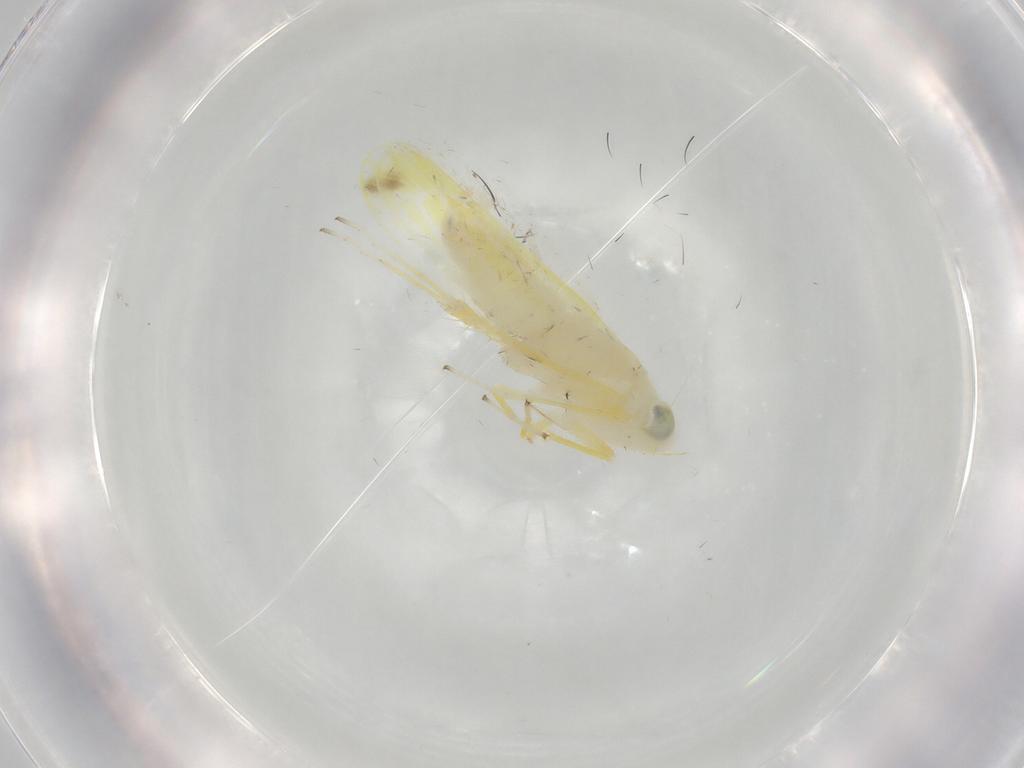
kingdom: Animalia
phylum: Arthropoda
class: Insecta
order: Hemiptera
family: Cicadellidae
